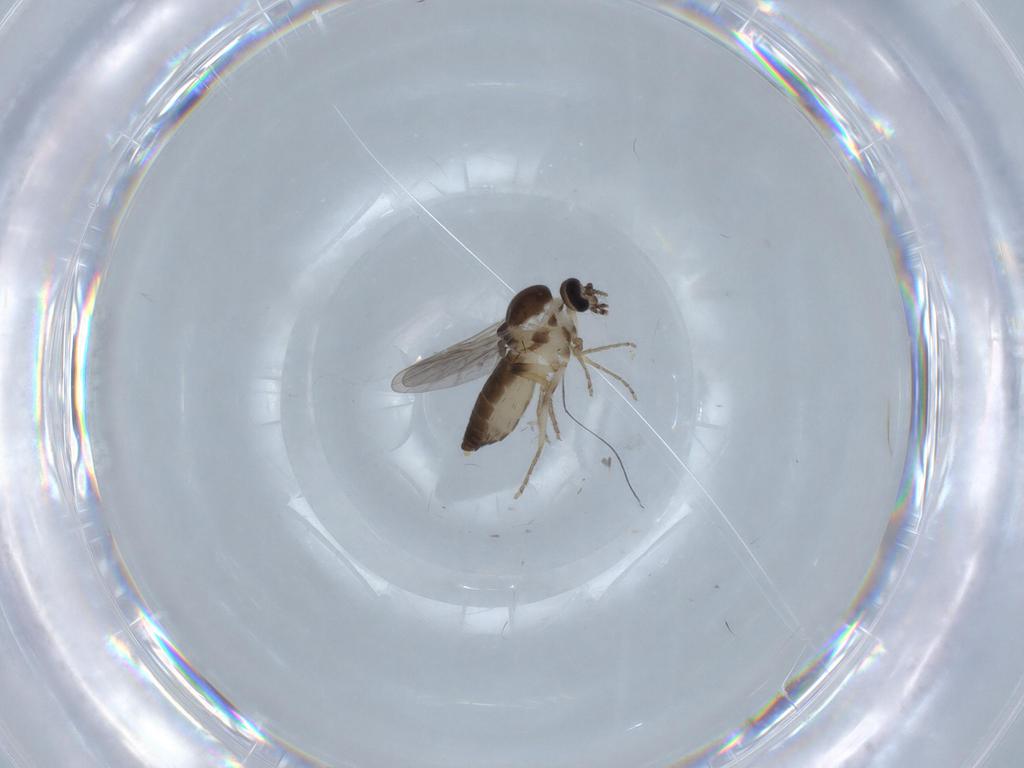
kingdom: Animalia
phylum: Arthropoda
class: Insecta
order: Diptera
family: Ceratopogonidae
